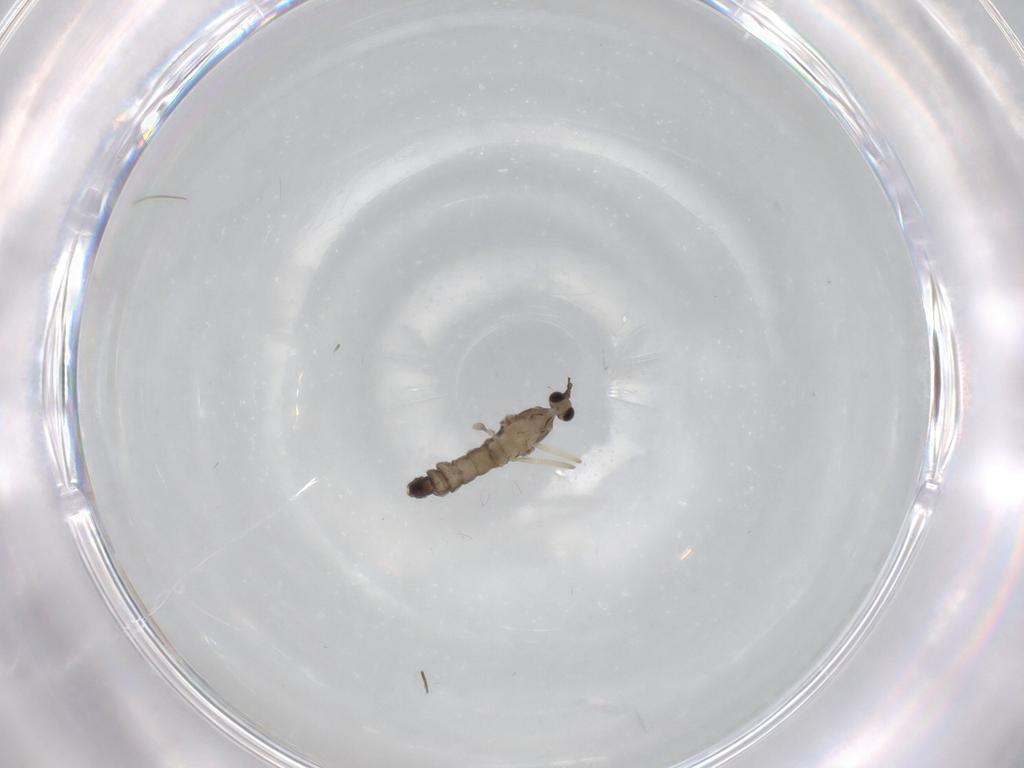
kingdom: Animalia
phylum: Arthropoda
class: Insecta
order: Diptera
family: Cecidomyiidae
